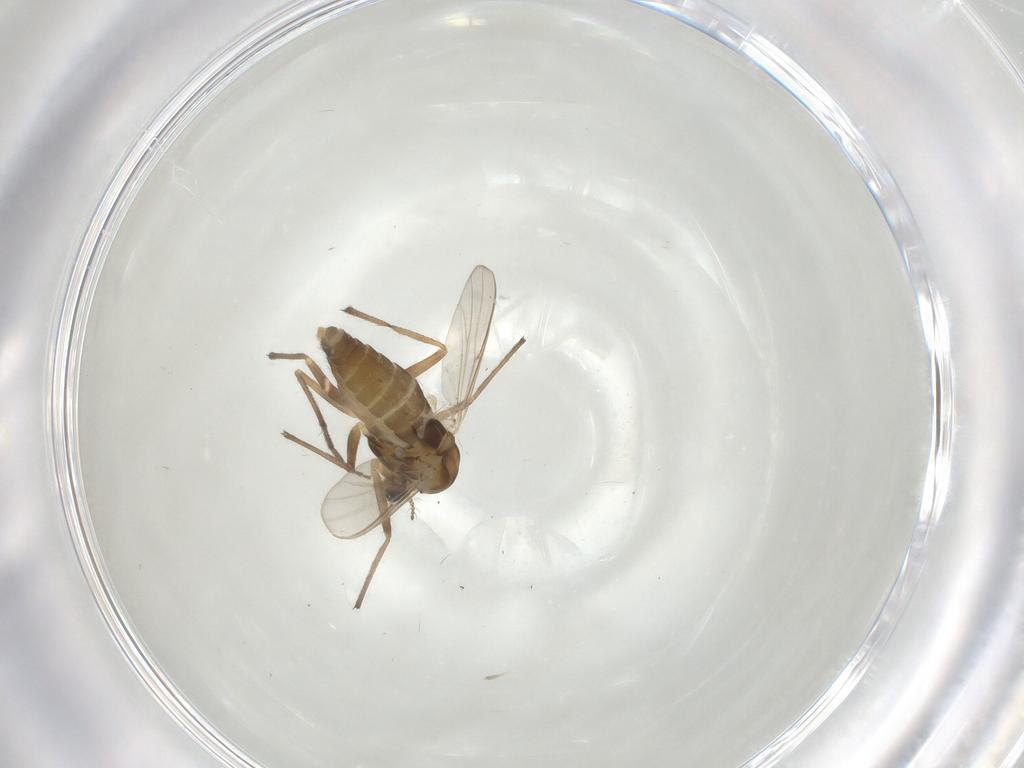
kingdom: Animalia
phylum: Arthropoda
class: Insecta
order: Diptera
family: Chironomidae
